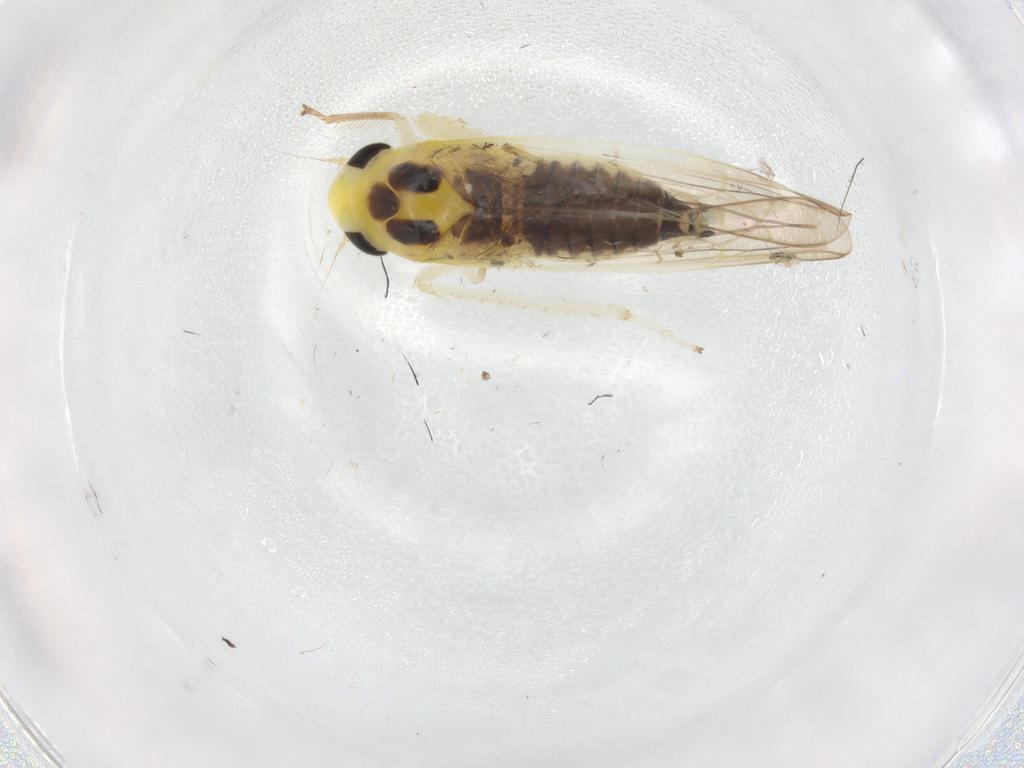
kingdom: Animalia
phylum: Arthropoda
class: Insecta
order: Hemiptera
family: Cicadellidae
